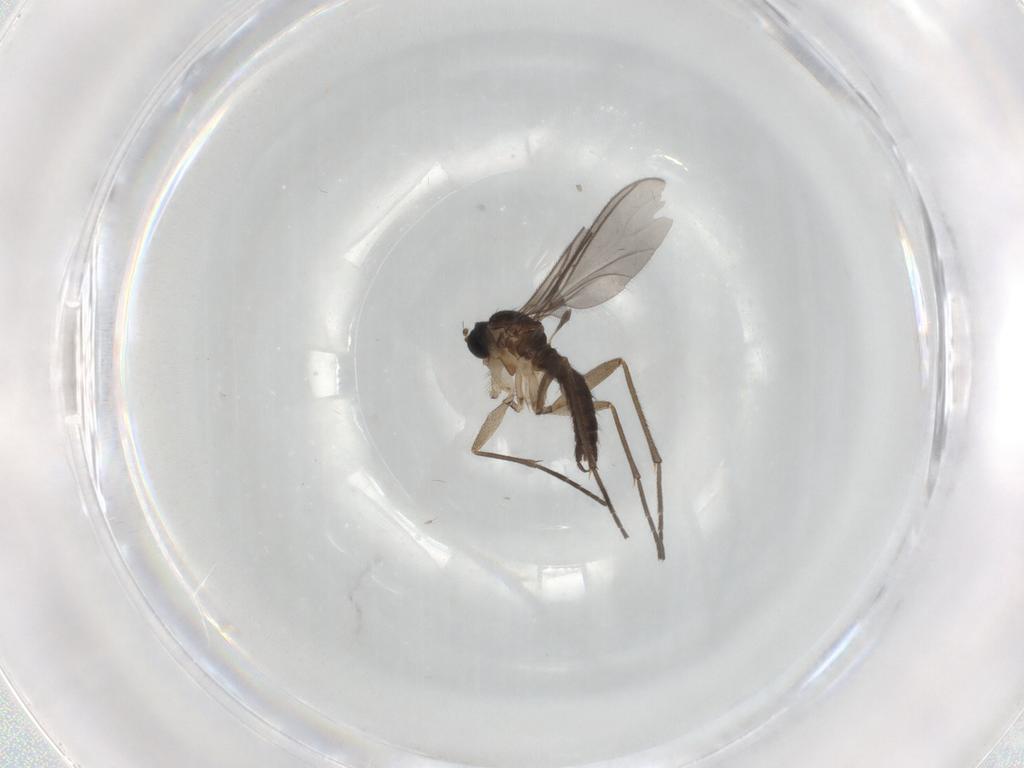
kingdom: Animalia
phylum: Arthropoda
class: Insecta
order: Diptera
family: Sciaridae
